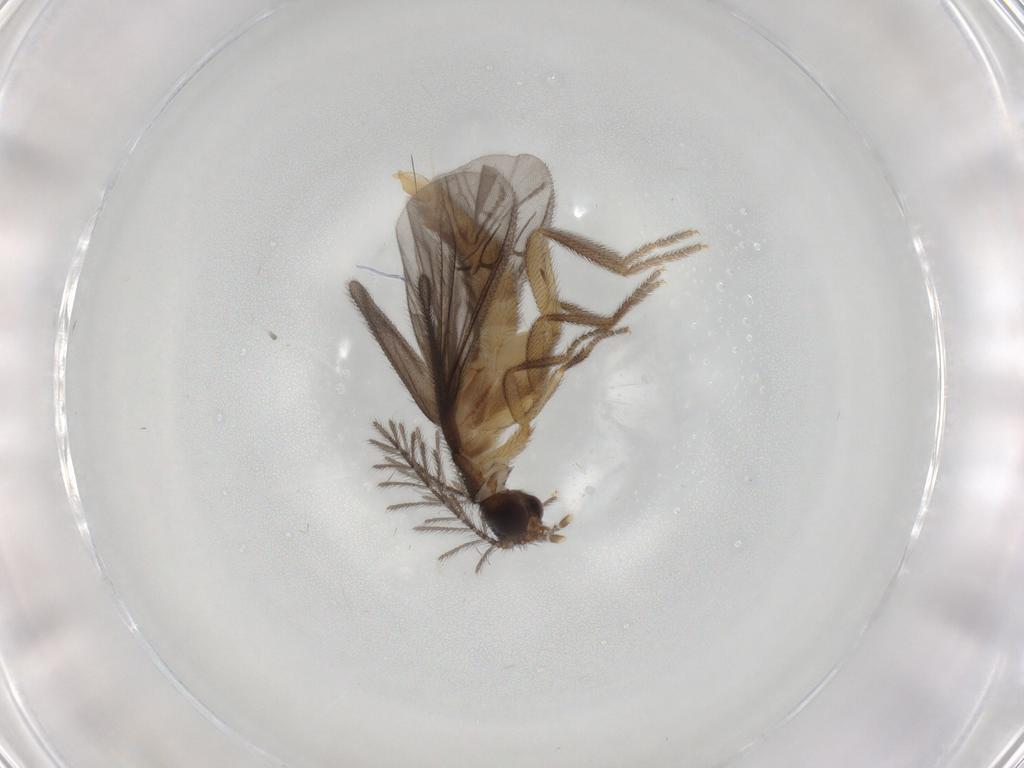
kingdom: Animalia
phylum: Arthropoda
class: Insecta
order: Coleoptera
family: Phengodidae
